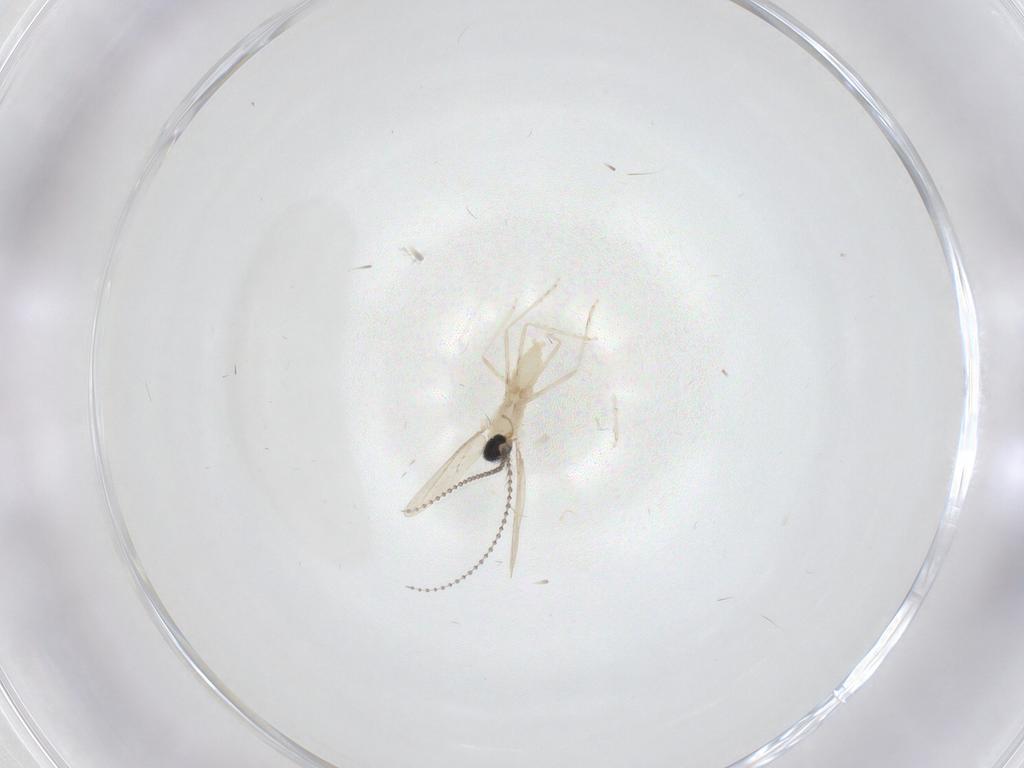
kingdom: Animalia
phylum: Arthropoda
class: Insecta
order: Diptera
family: Cecidomyiidae
